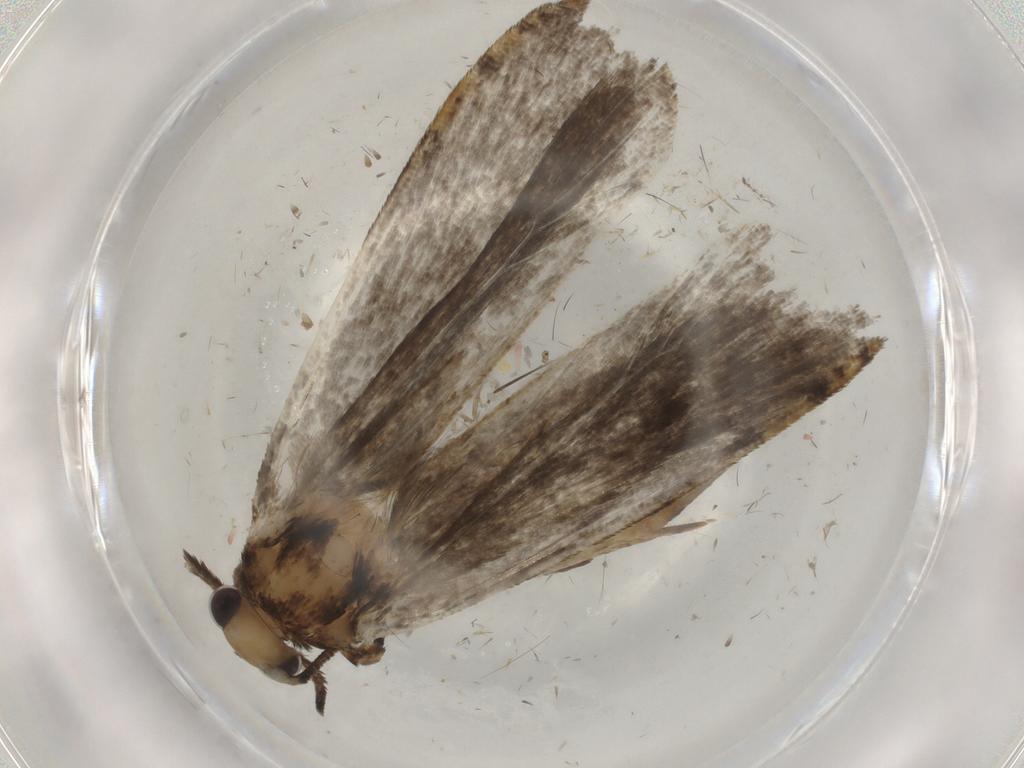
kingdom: Animalia
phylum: Arthropoda
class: Insecta
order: Lepidoptera
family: Tineidae
